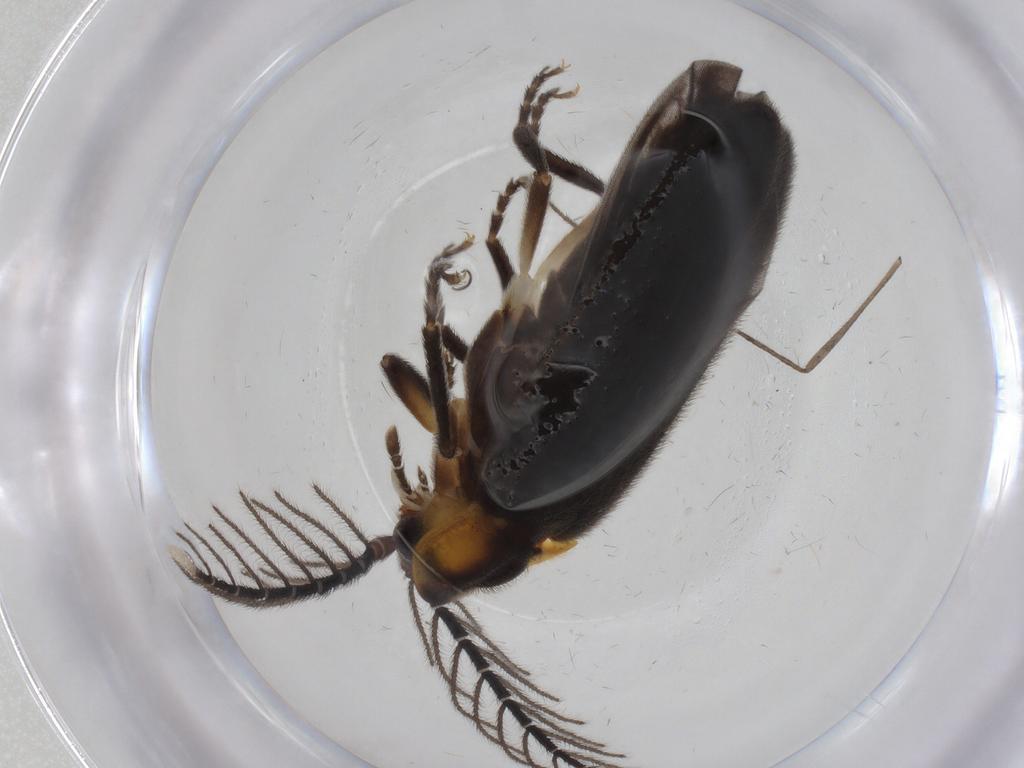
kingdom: Animalia
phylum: Arthropoda
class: Insecta
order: Coleoptera
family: Lampyridae
